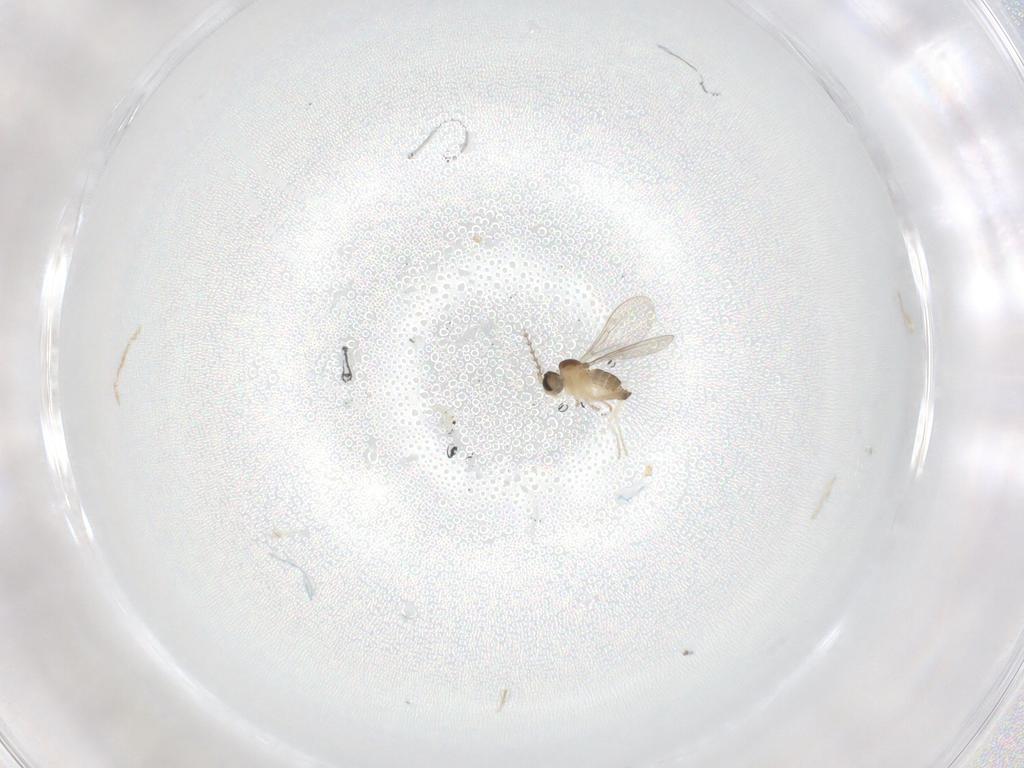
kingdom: Animalia
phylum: Arthropoda
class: Insecta
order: Diptera
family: Cecidomyiidae
